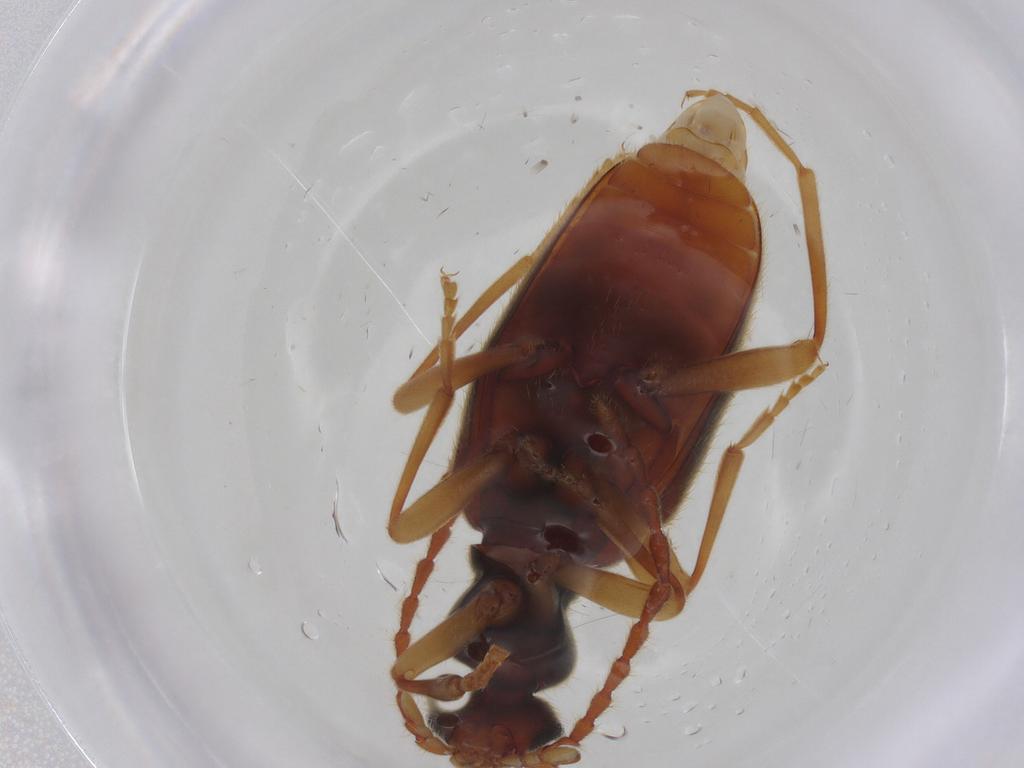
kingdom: Animalia
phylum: Arthropoda
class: Insecta
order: Coleoptera
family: Anthicidae
